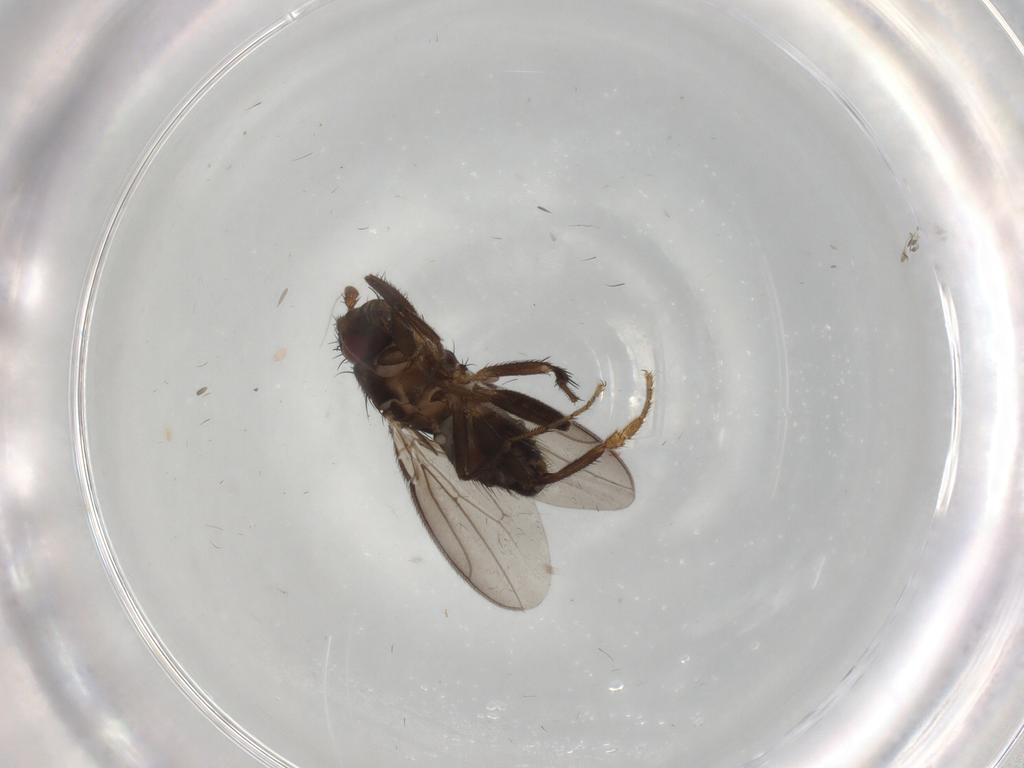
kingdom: Animalia
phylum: Arthropoda
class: Insecta
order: Diptera
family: Sphaeroceridae
